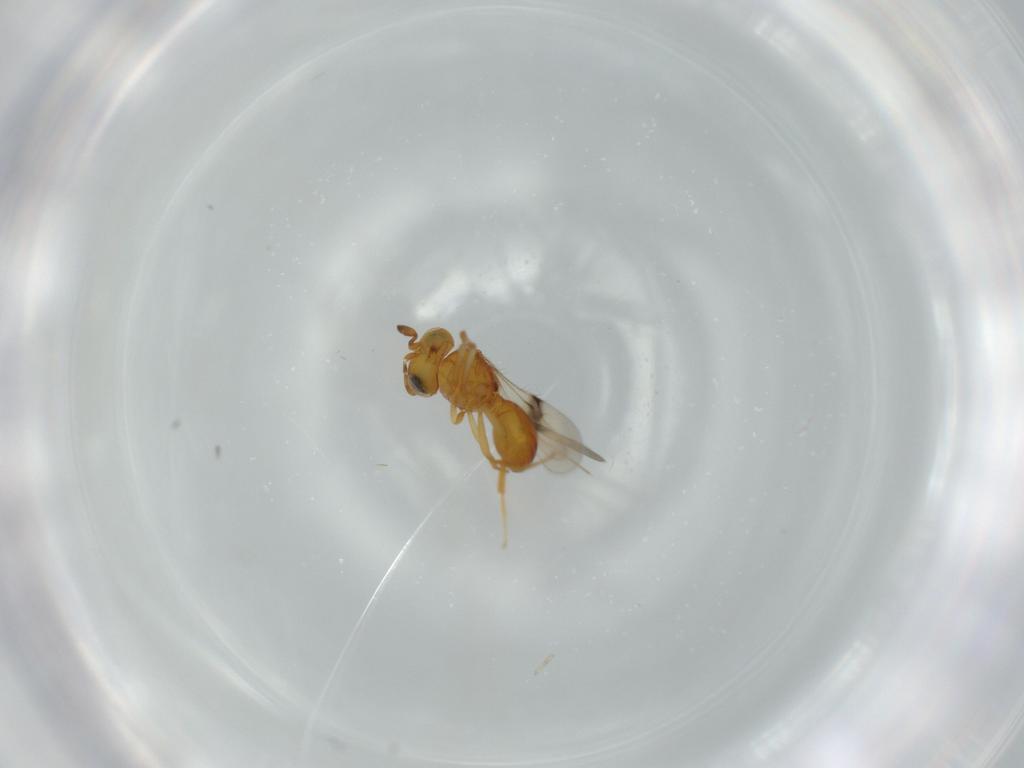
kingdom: Animalia
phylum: Arthropoda
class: Insecta
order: Hymenoptera
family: Scelionidae
